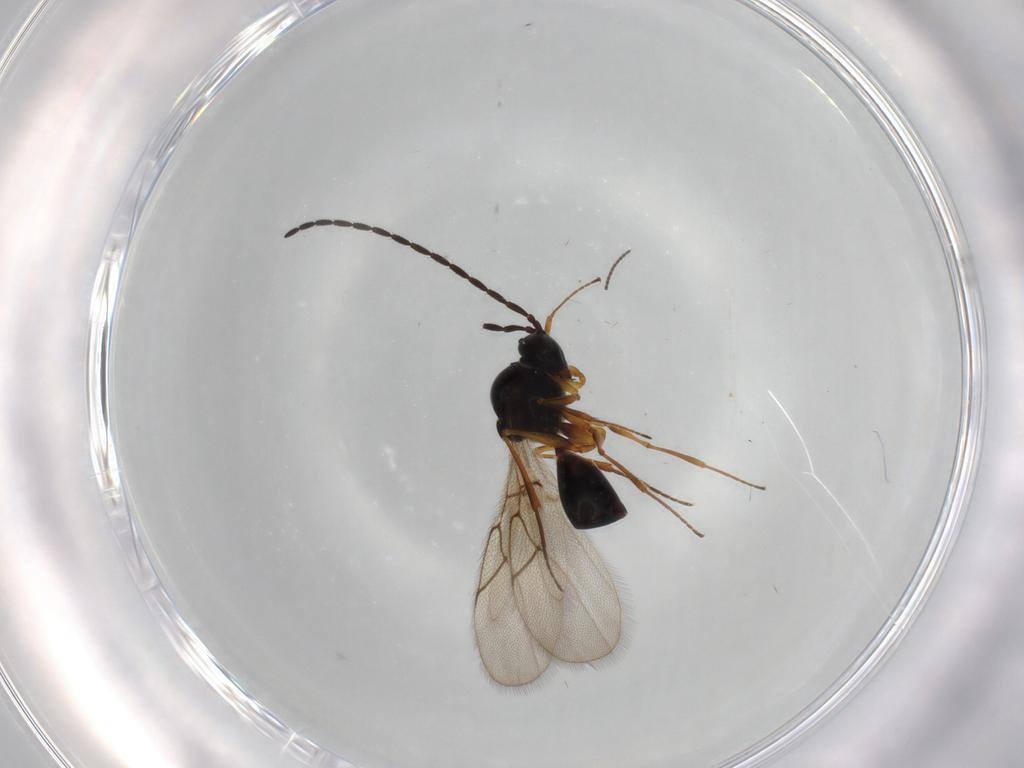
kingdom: Animalia
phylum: Arthropoda
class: Insecta
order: Hymenoptera
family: Figitidae
